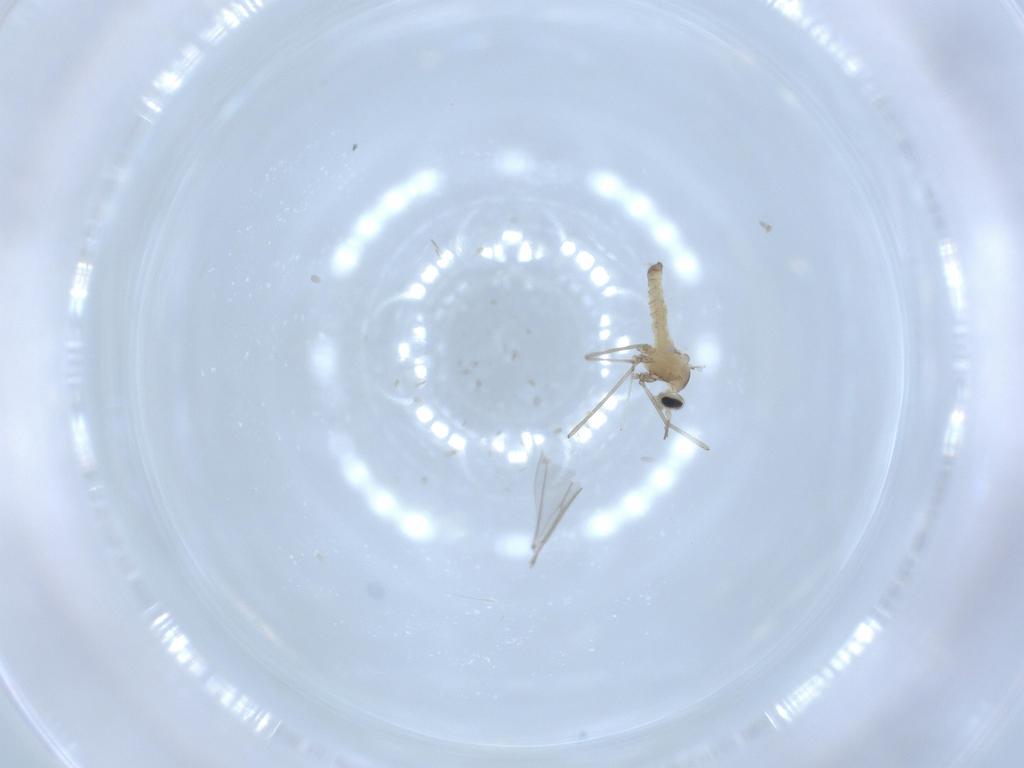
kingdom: Animalia
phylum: Arthropoda
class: Insecta
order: Diptera
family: Cecidomyiidae
